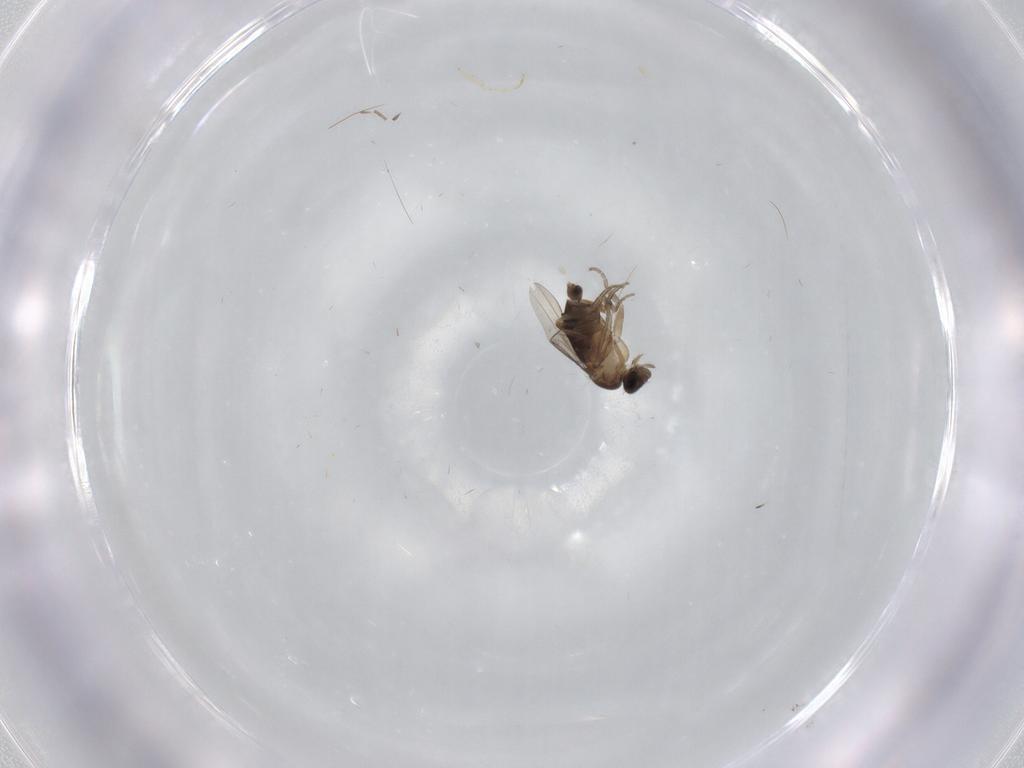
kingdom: Animalia
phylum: Arthropoda
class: Insecta
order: Diptera
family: Phoridae
